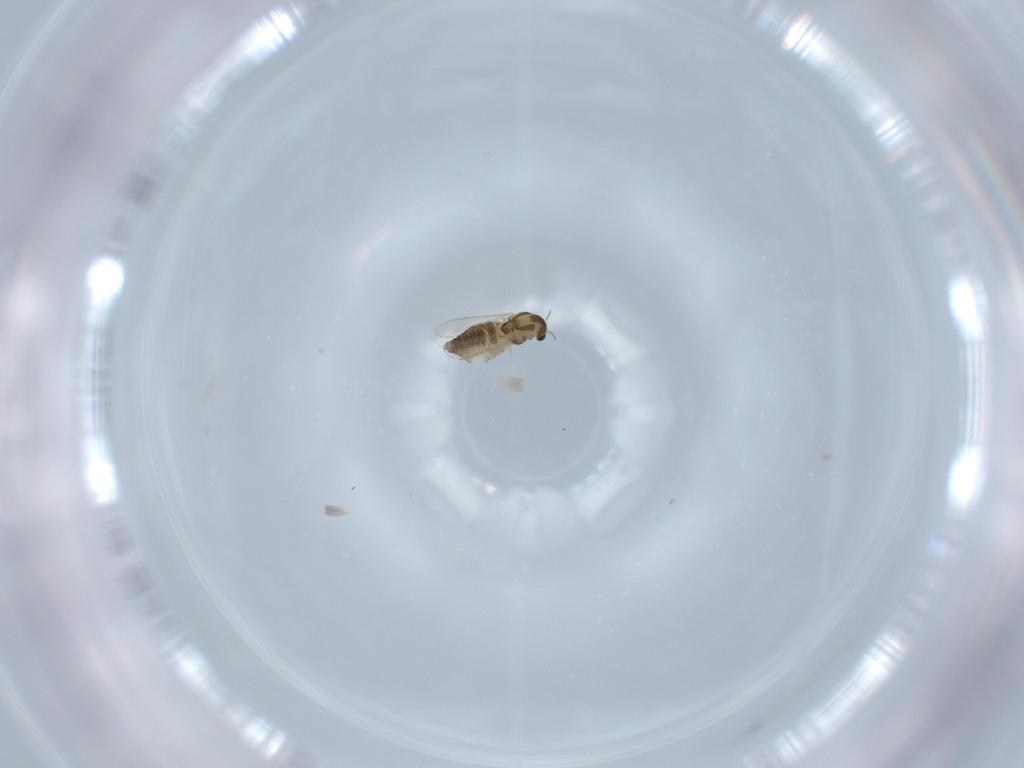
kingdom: Animalia
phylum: Arthropoda
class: Insecta
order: Diptera
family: Chironomidae
